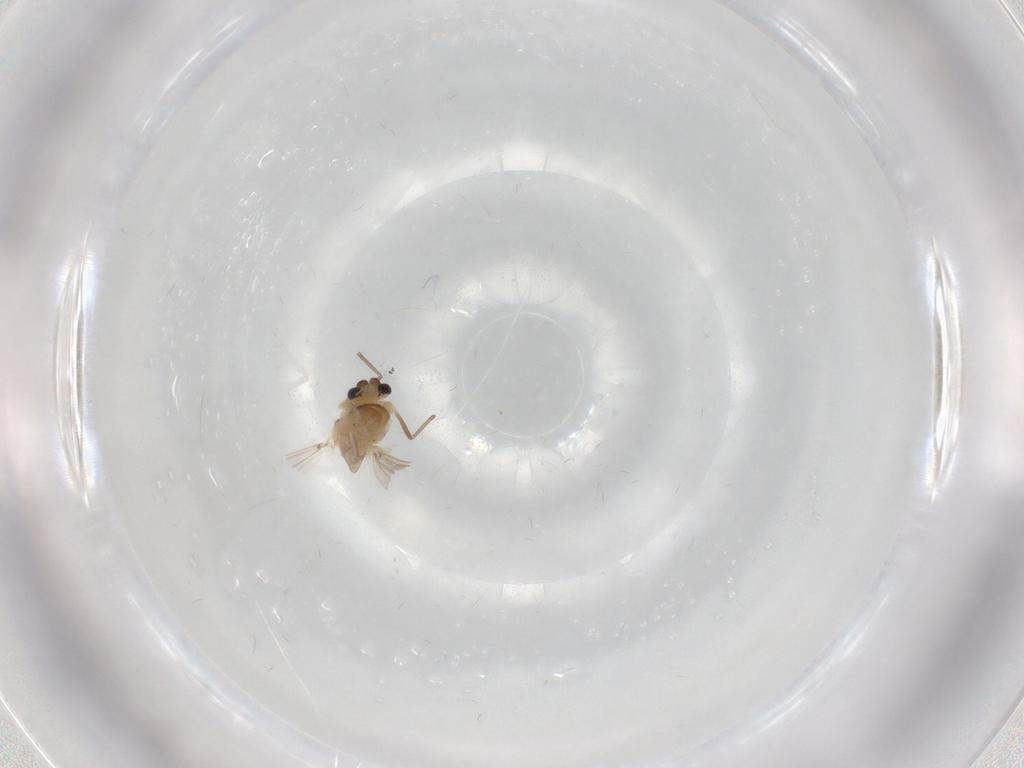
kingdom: Animalia
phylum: Arthropoda
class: Insecta
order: Diptera
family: Chironomidae
